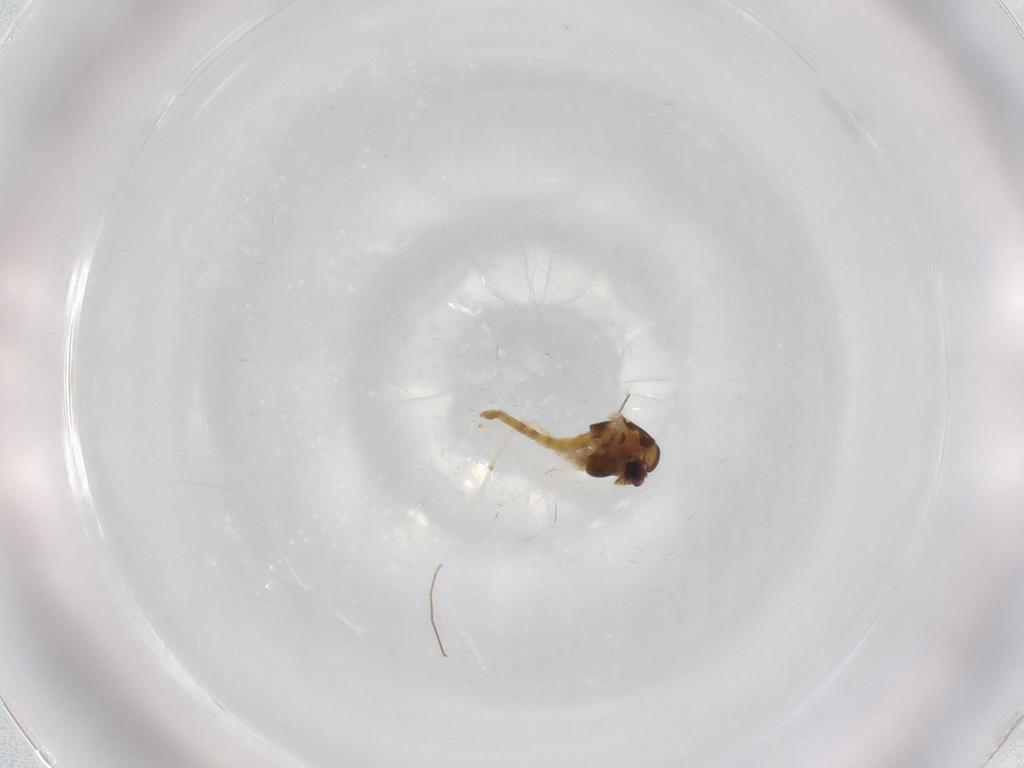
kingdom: Animalia
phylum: Arthropoda
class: Insecta
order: Diptera
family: Chironomidae
